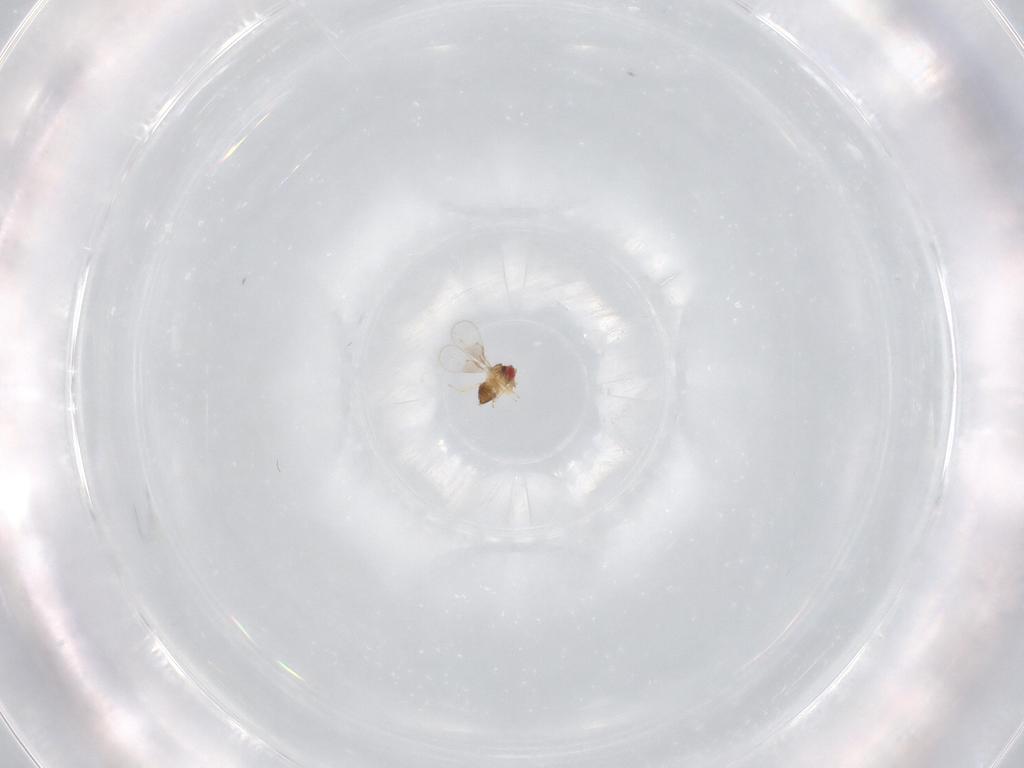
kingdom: Animalia
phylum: Arthropoda
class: Insecta
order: Hymenoptera
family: Trichogrammatidae
